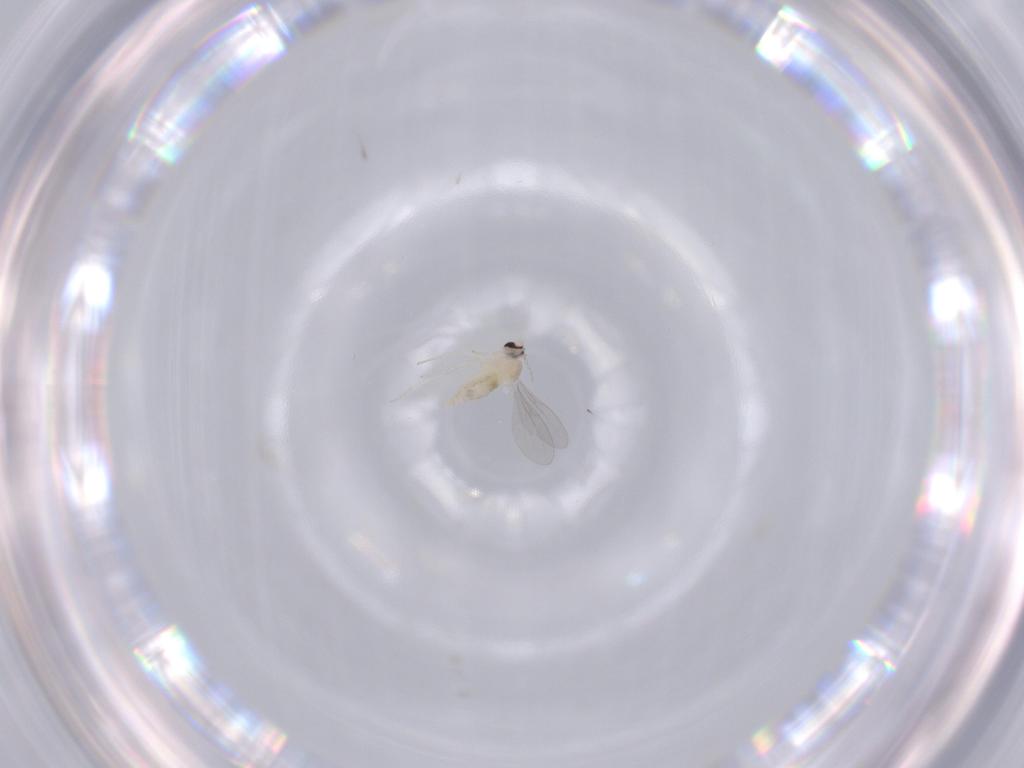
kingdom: Animalia
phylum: Arthropoda
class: Insecta
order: Diptera
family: Cecidomyiidae
